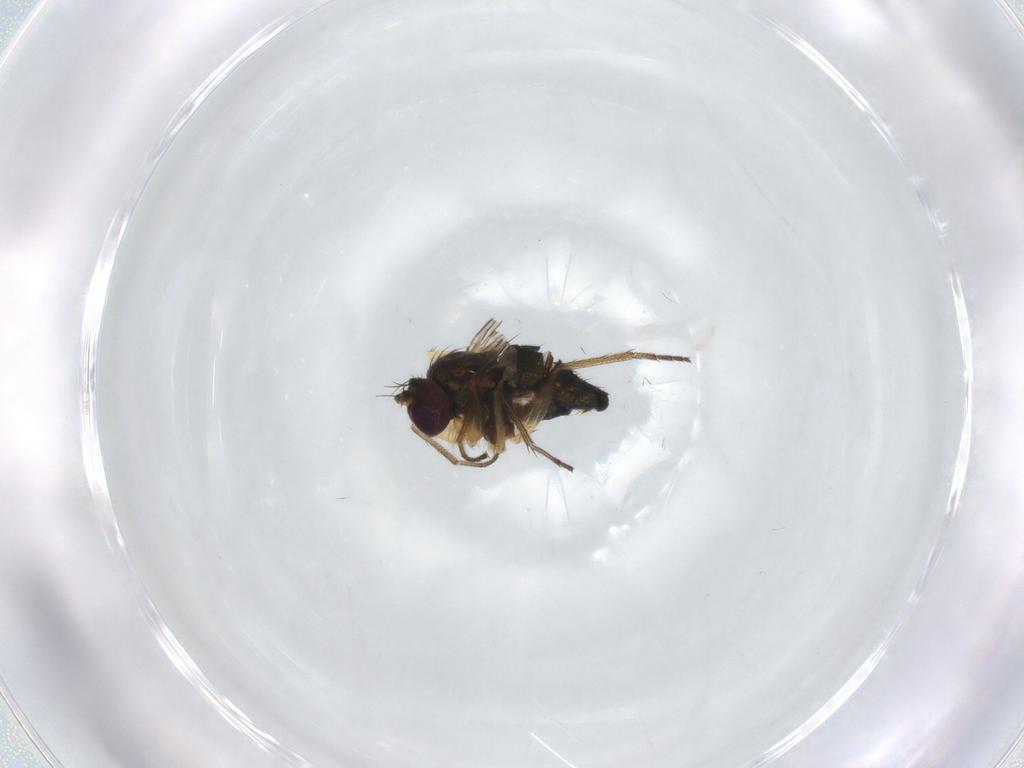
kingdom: Animalia
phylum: Arthropoda
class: Insecta
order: Diptera
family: Dolichopodidae
